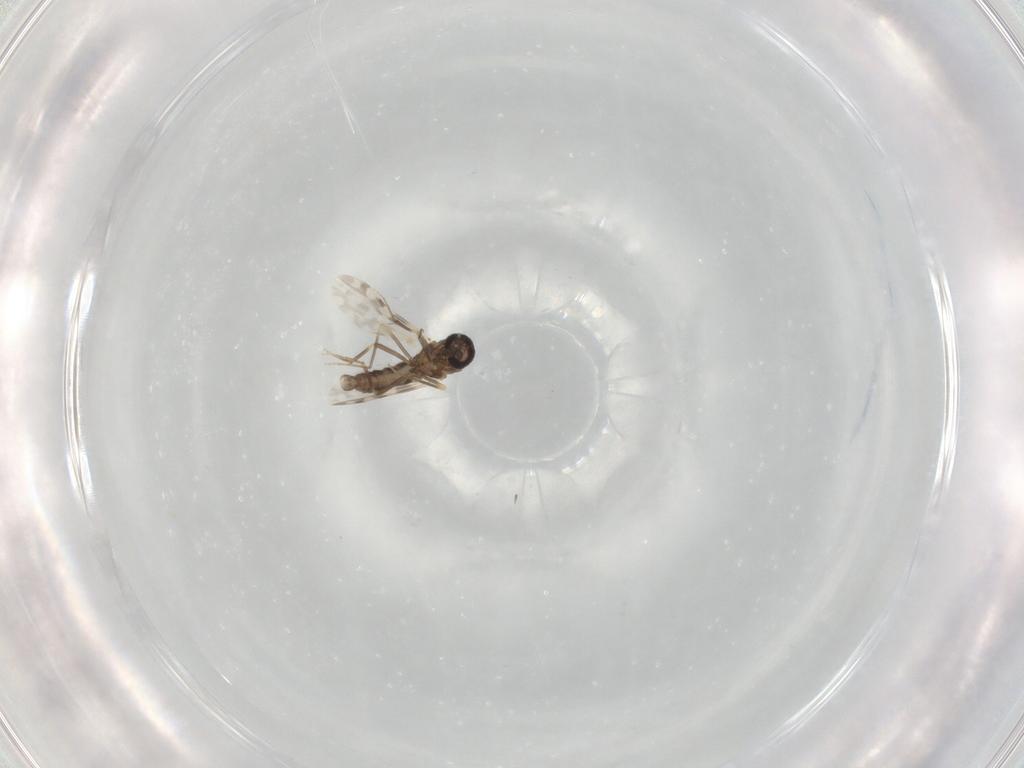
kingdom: Animalia
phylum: Arthropoda
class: Insecta
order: Diptera
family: Ceratopogonidae
